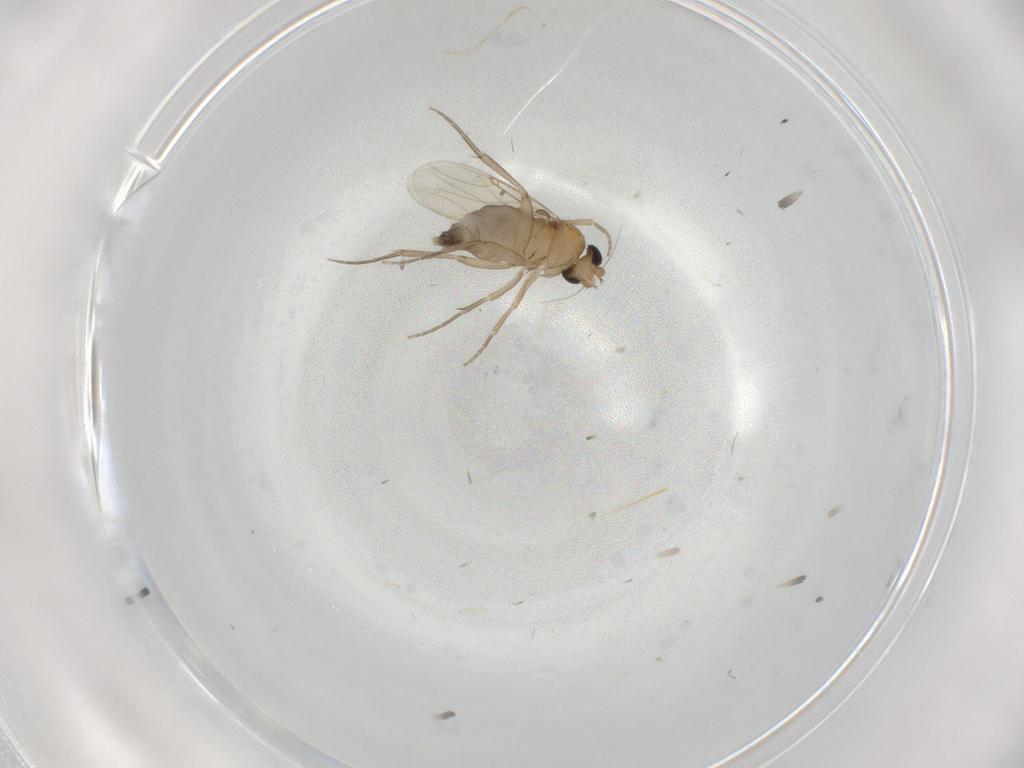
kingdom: Animalia
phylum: Arthropoda
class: Insecta
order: Diptera
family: Phoridae
